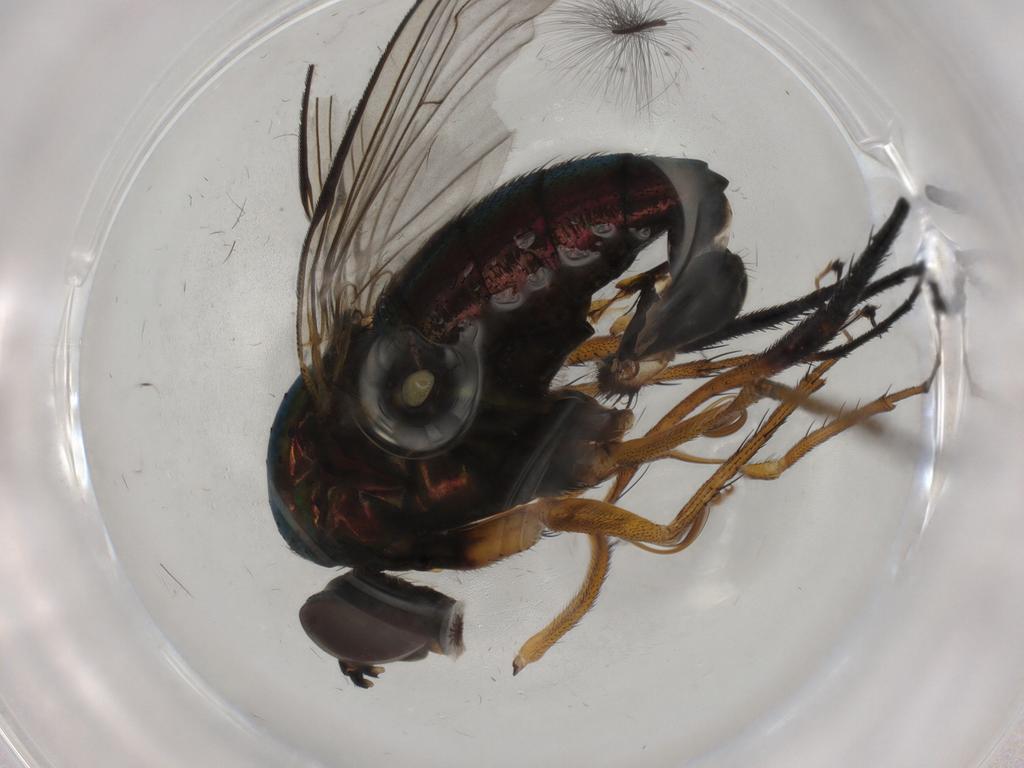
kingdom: Animalia
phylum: Arthropoda
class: Insecta
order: Diptera
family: Dolichopodidae
